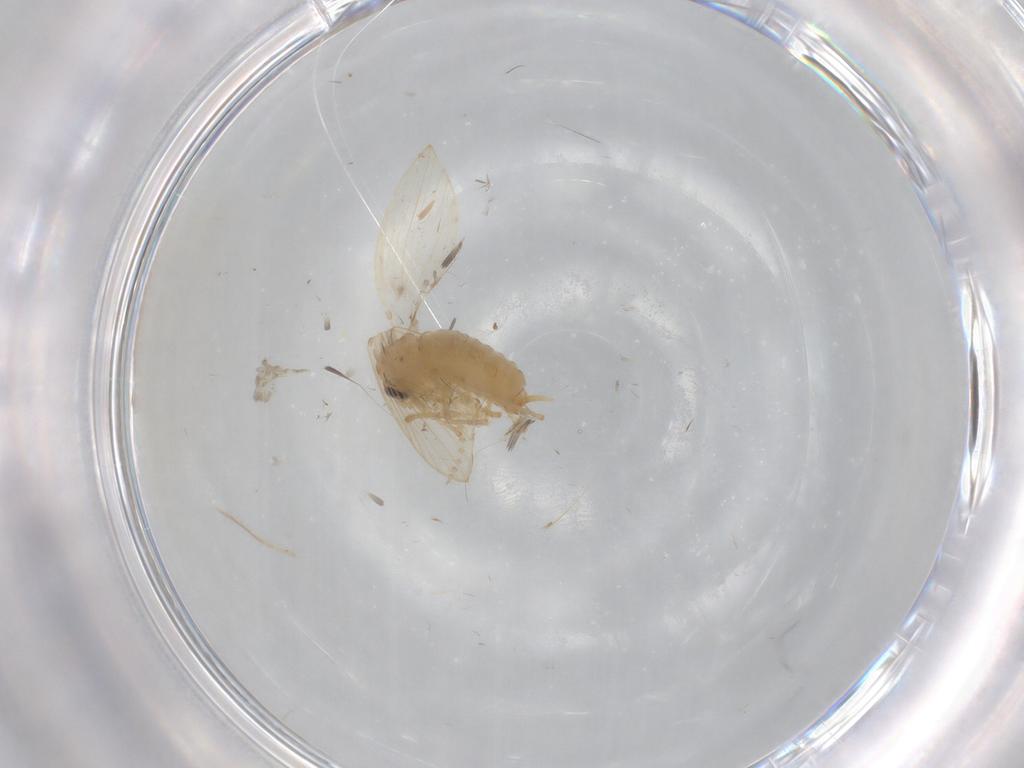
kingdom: Animalia
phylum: Arthropoda
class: Insecta
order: Diptera
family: Psychodidae
